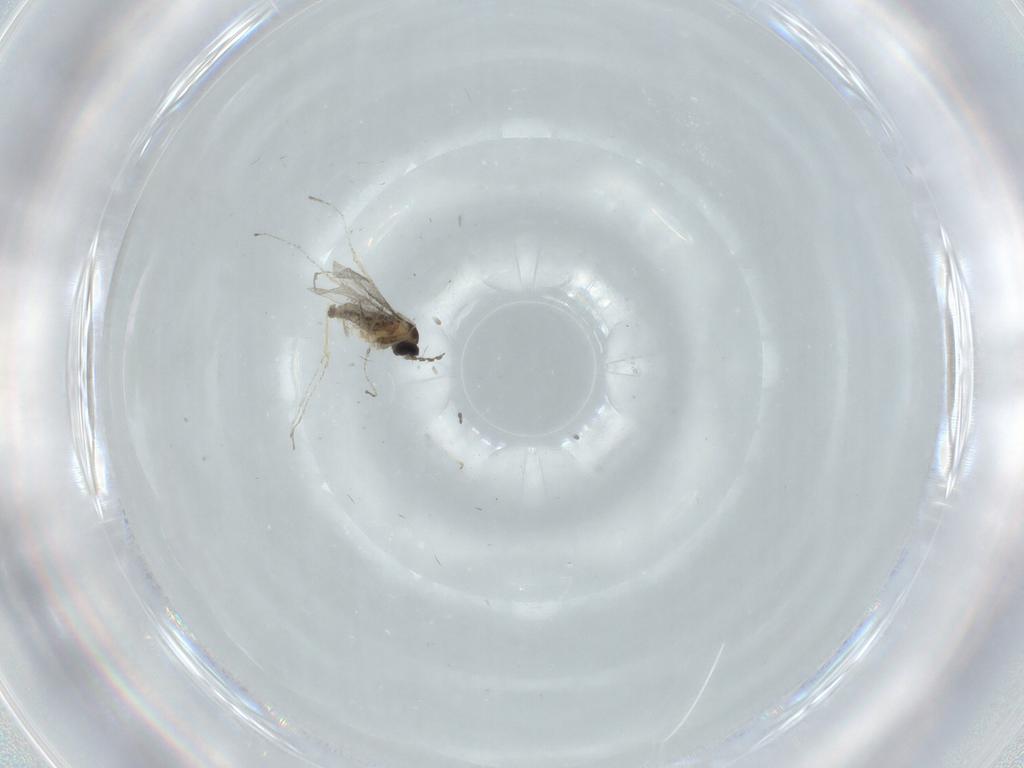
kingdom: Animalia
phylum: Arthropoda
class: Insecta
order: Diptera
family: Cecidomyiidae
